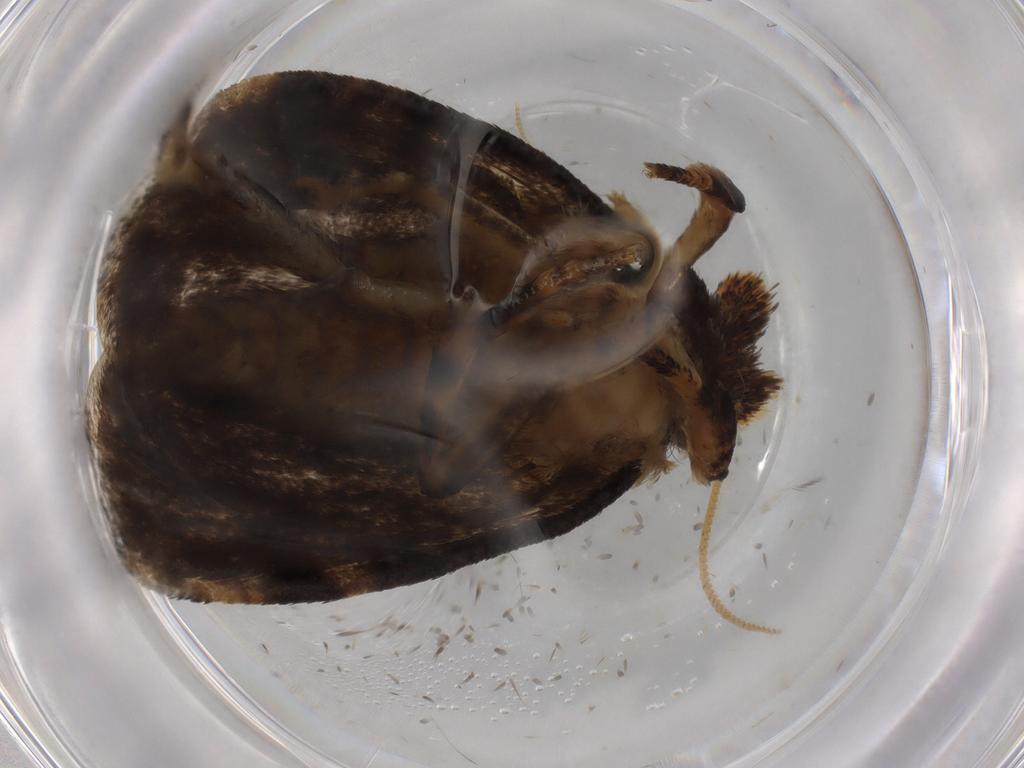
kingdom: Animalia
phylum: Arthropoda
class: Insecta
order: Lepidoptera
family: Tineidae
